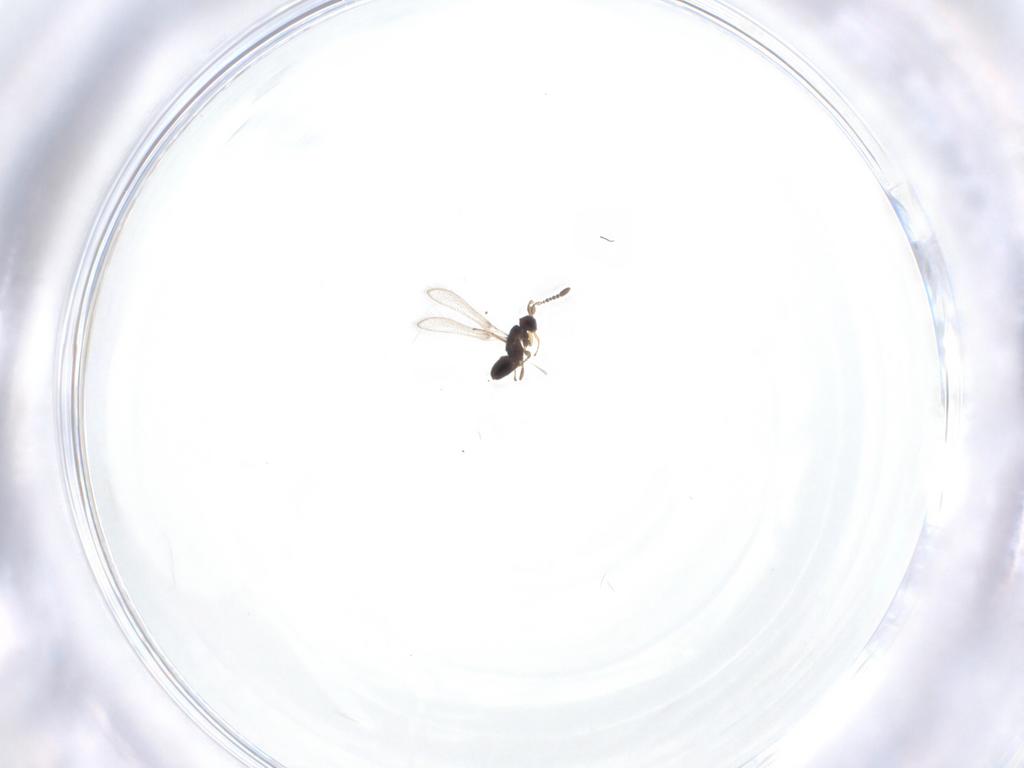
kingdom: Animalia
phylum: Arthropoda
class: Insecta
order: Hymenoptera
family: Mymaridae
